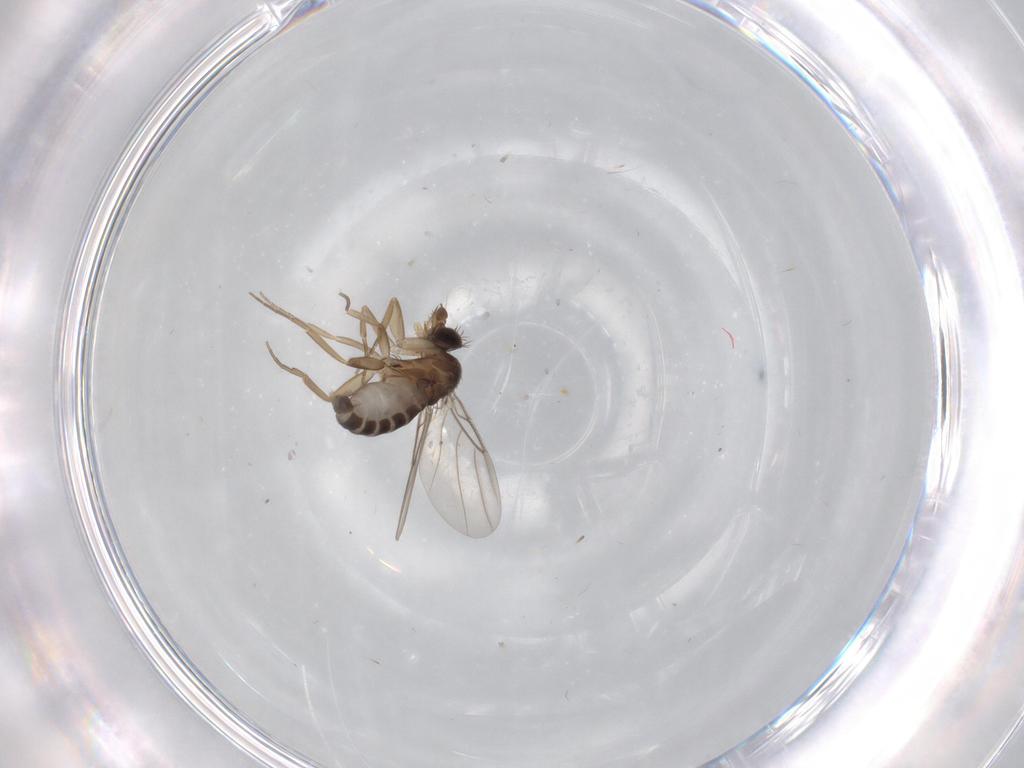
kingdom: Animalia
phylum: Arthropoda
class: Insecta
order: Diptera
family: Phoridae
